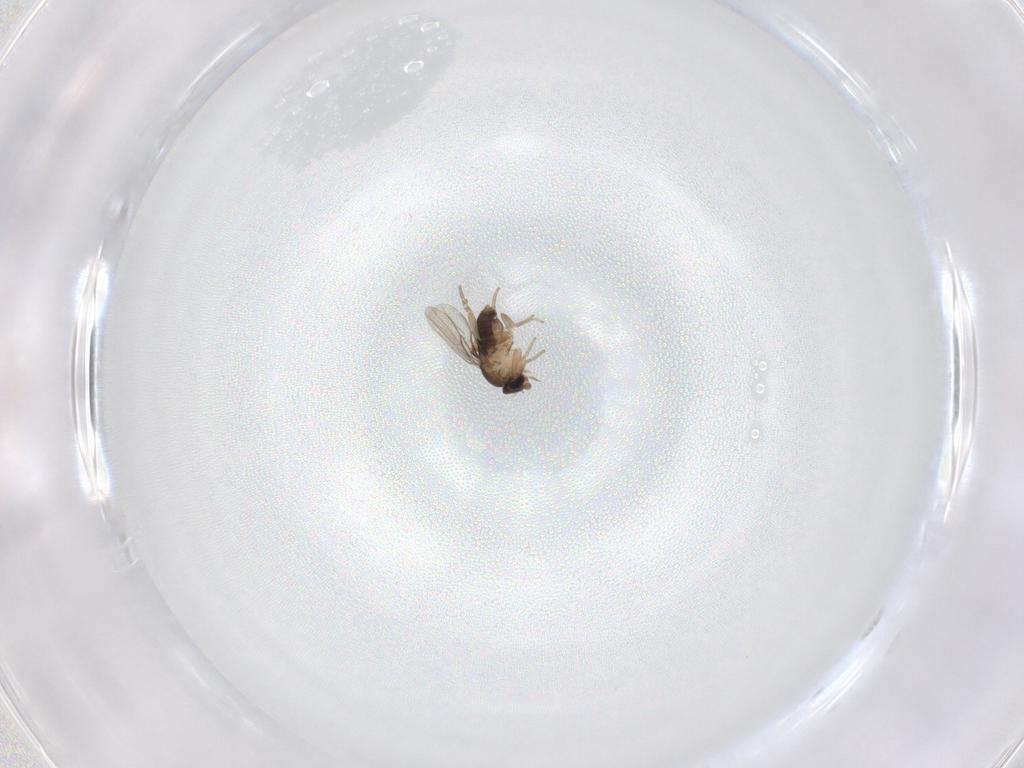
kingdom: Animalia
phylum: Arthropoda
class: Insecta
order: Diptera
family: Phoridae
